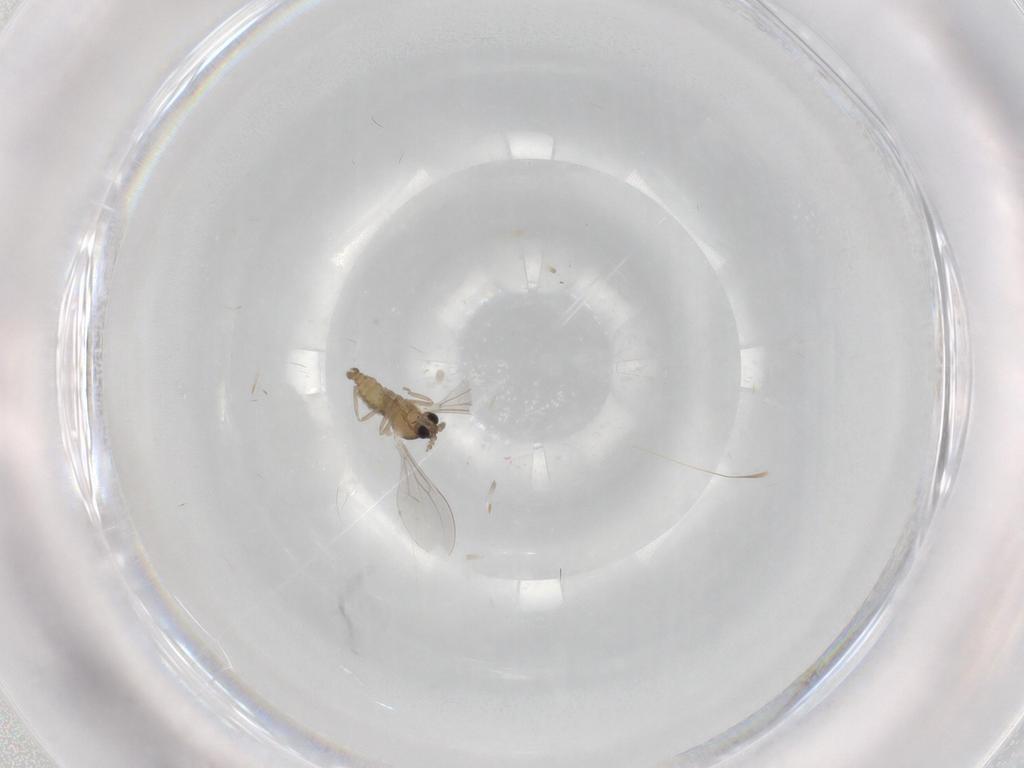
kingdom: Animalia
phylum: Arthropoda
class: Insecta
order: Diptera
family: Cecidomyiidae
